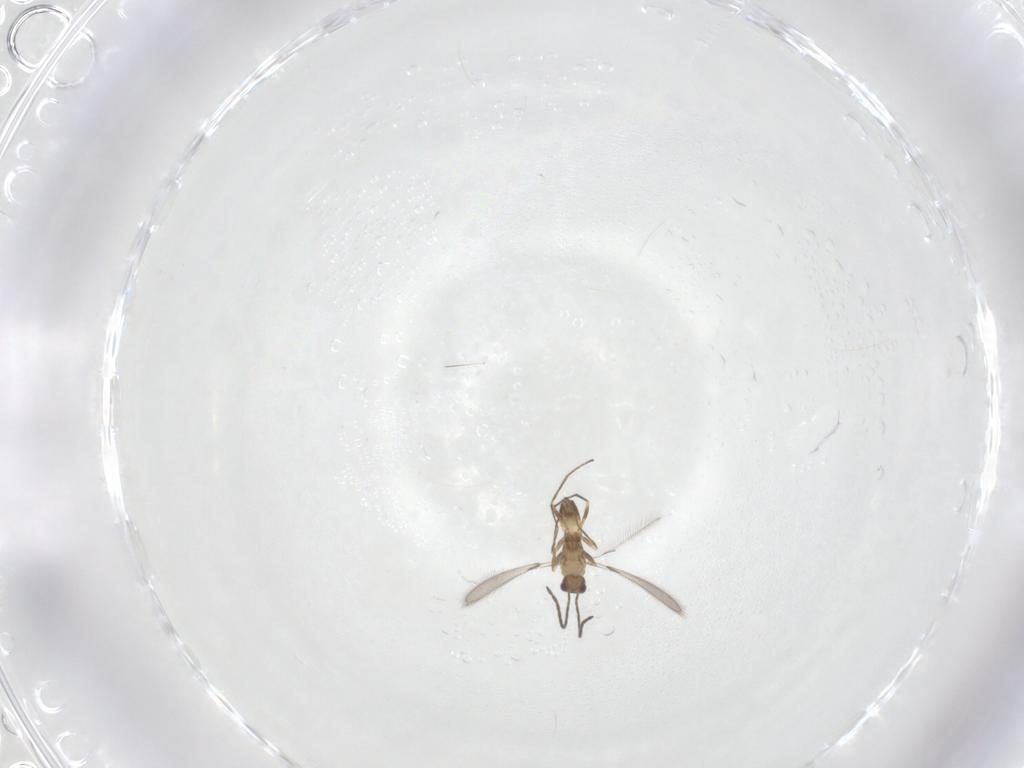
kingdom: Animalia
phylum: Arthropoda
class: Insecta
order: Hymenoptera
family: Mymaridae
